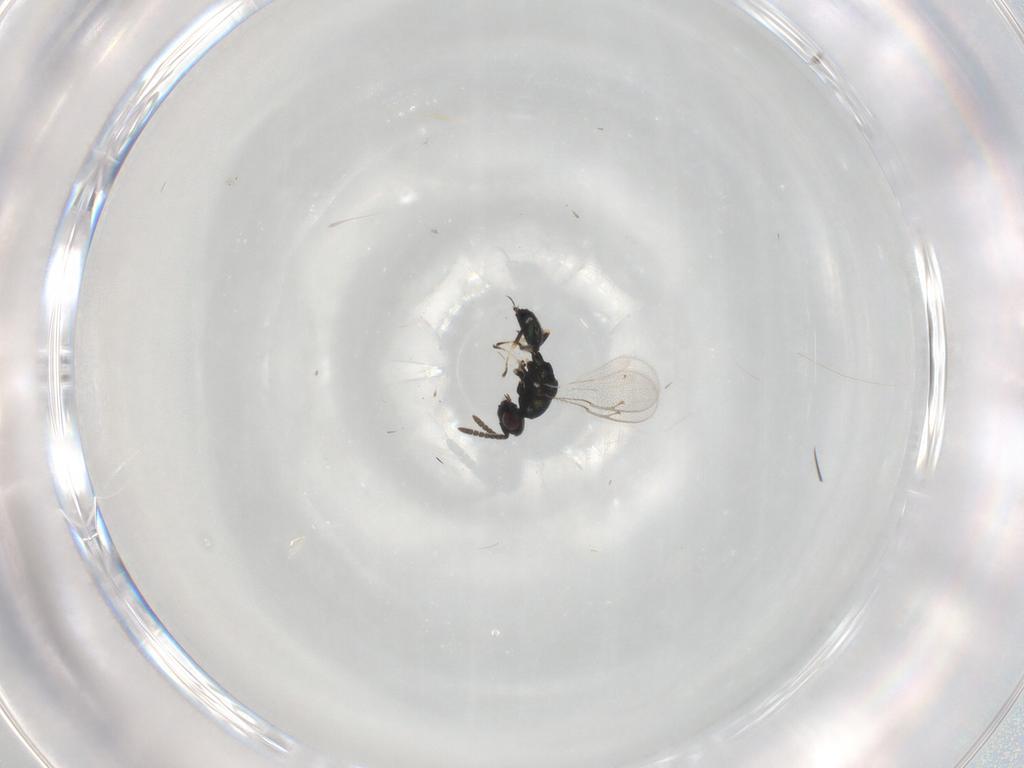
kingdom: Animalia
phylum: Arthropoda
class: Insecta
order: Hymenoptera
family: Pteromalidae
